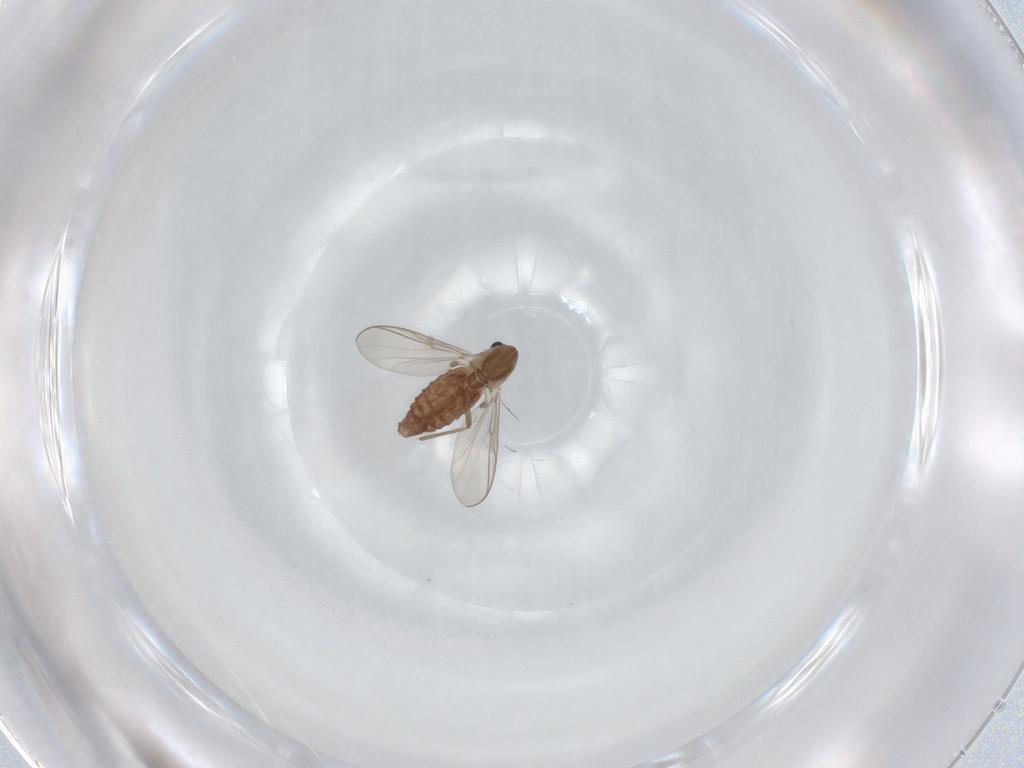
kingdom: Animalia
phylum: Arthropoda
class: Insecta
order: Diptera
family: Chironomidae
